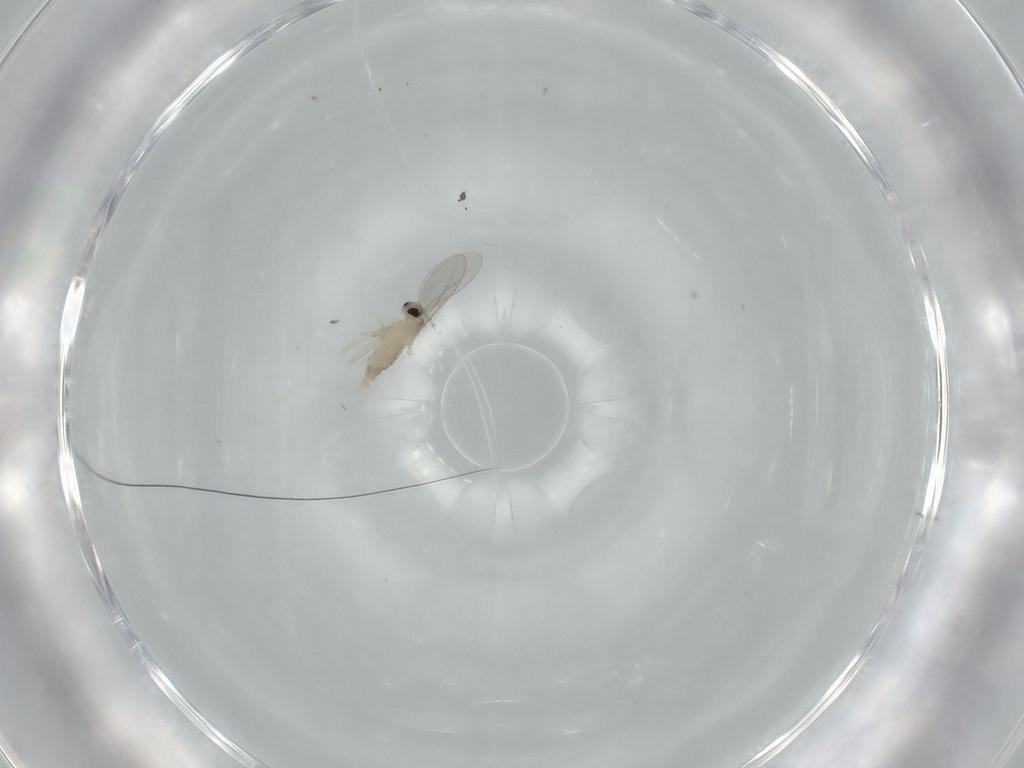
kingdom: Animalia
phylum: Arthropoda
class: Insecta
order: Diptera
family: Cecidomyiidae
